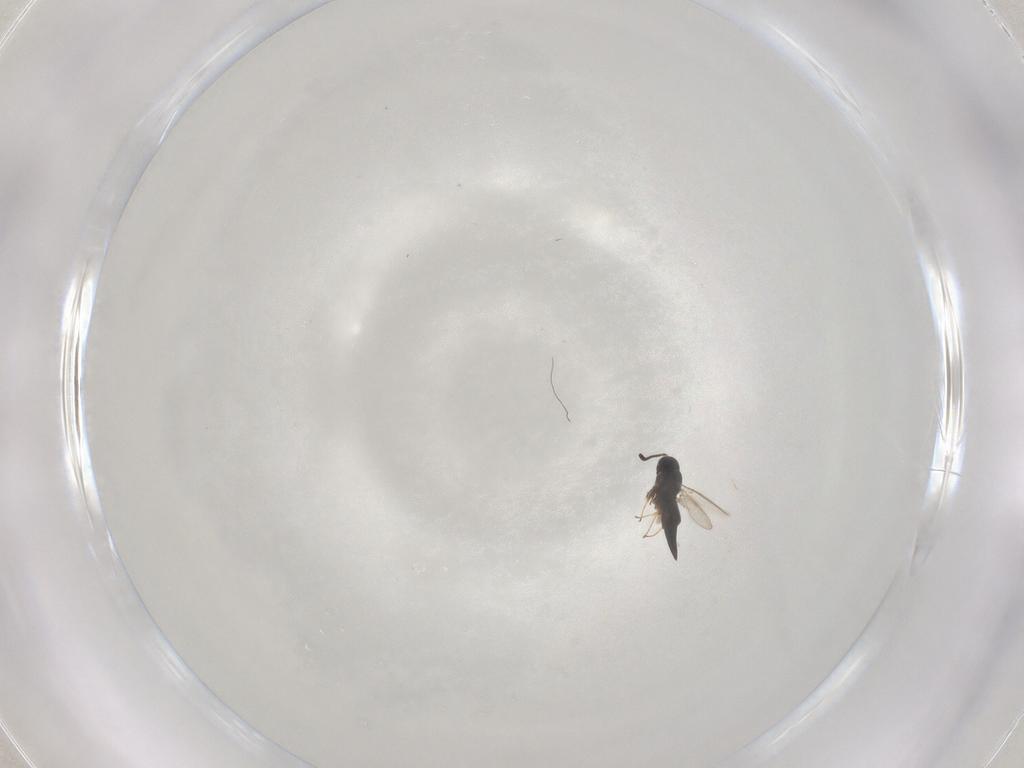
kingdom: Animalia
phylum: Arthropoda
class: Insecta
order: Hymenoptera
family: Scelionidae
